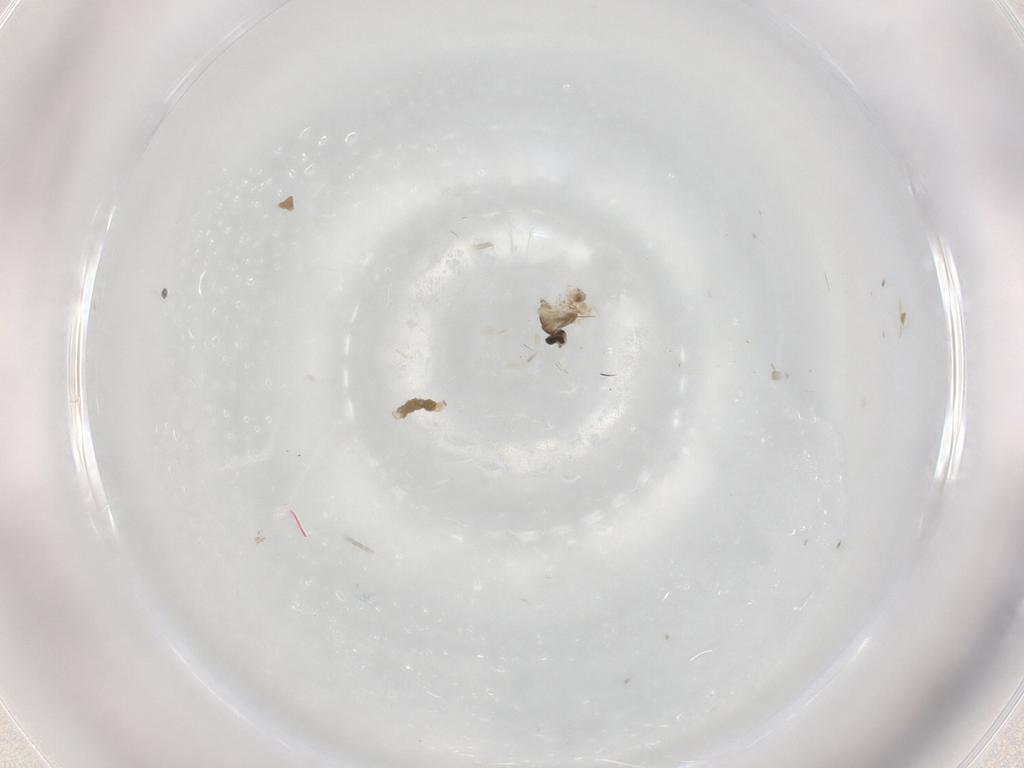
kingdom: Animalia
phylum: Arthropoda
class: Insecta
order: Diptera
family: Cecidomyiidae
